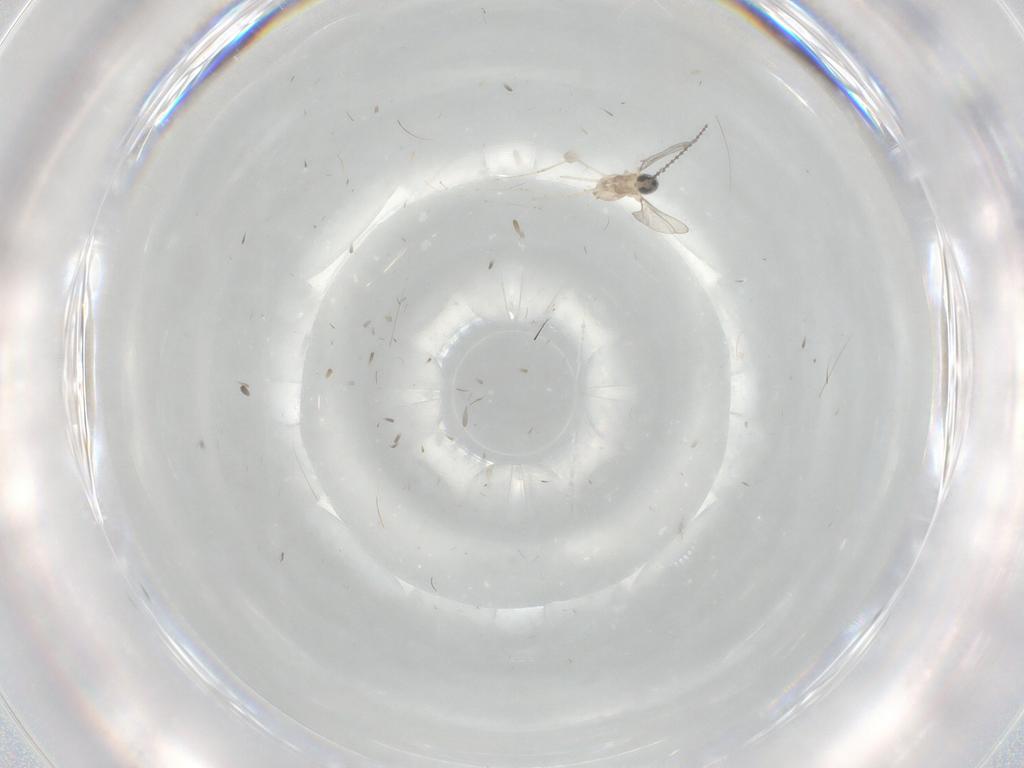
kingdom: Animalia
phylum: Arthropoda
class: Insecta
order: Diptera
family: Cecidomyiidae
